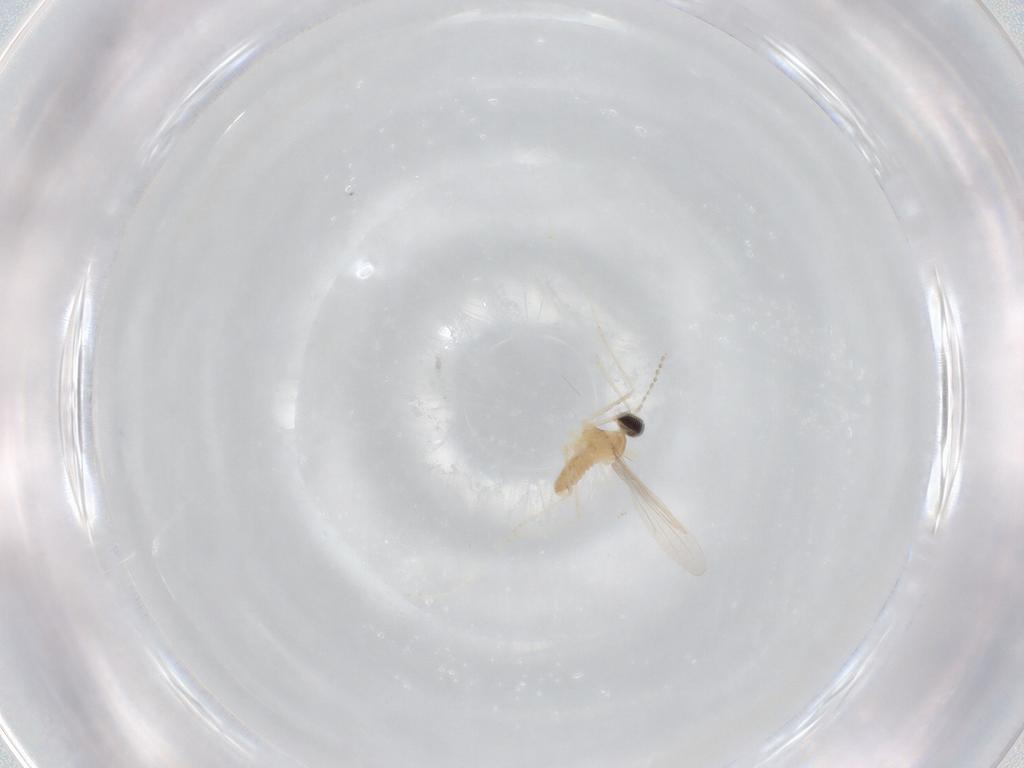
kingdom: Animalia
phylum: Arthropoda
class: Insecta
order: Diptera
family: Cecidomyiidae
